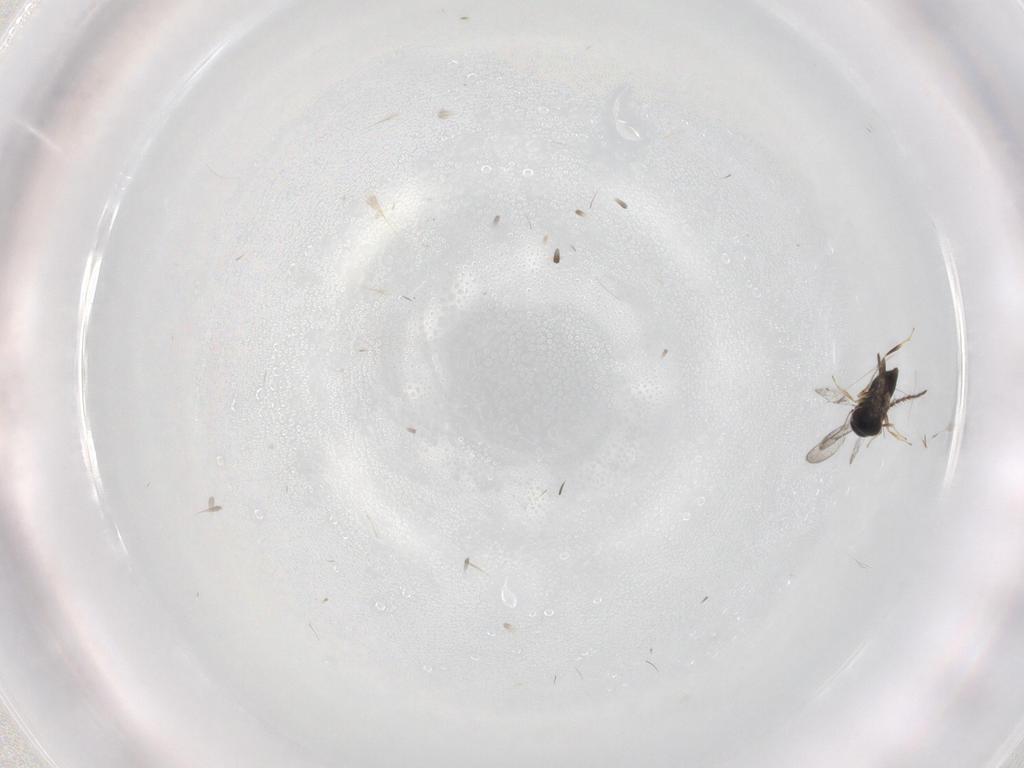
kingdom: Animalia
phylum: Arthropoda
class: Insecta
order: Hymenoptera
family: Ceraphronidae
